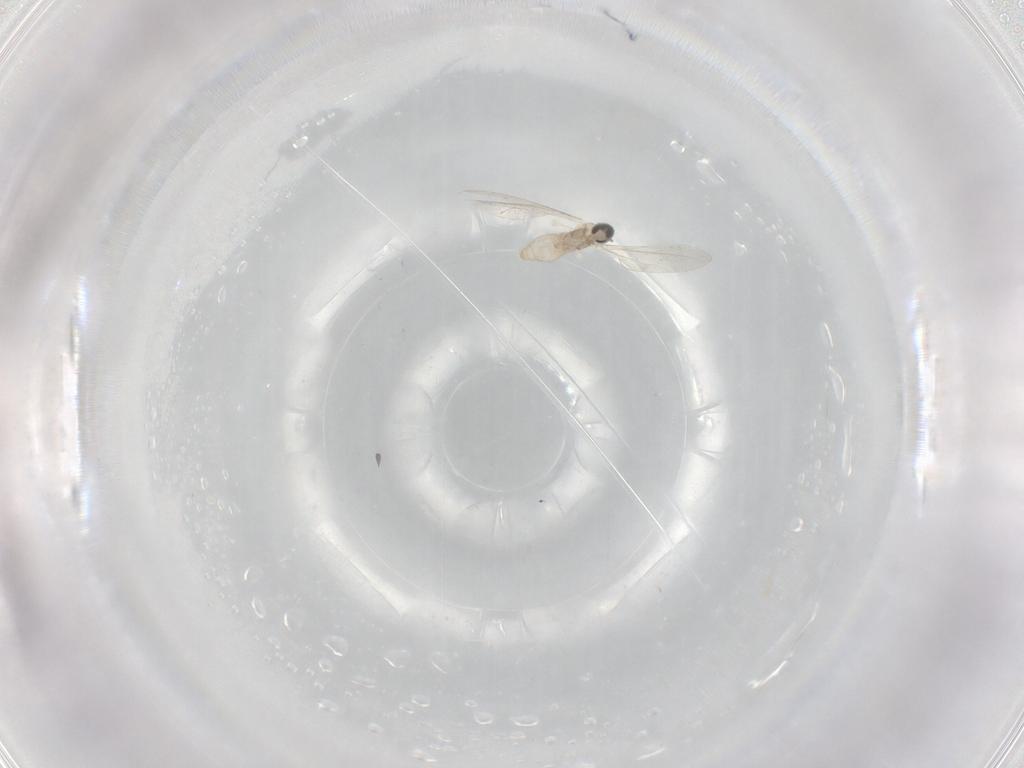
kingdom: Animalia
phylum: Arthropoda
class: Insecta
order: Diptera
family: Cecidomyiidae
